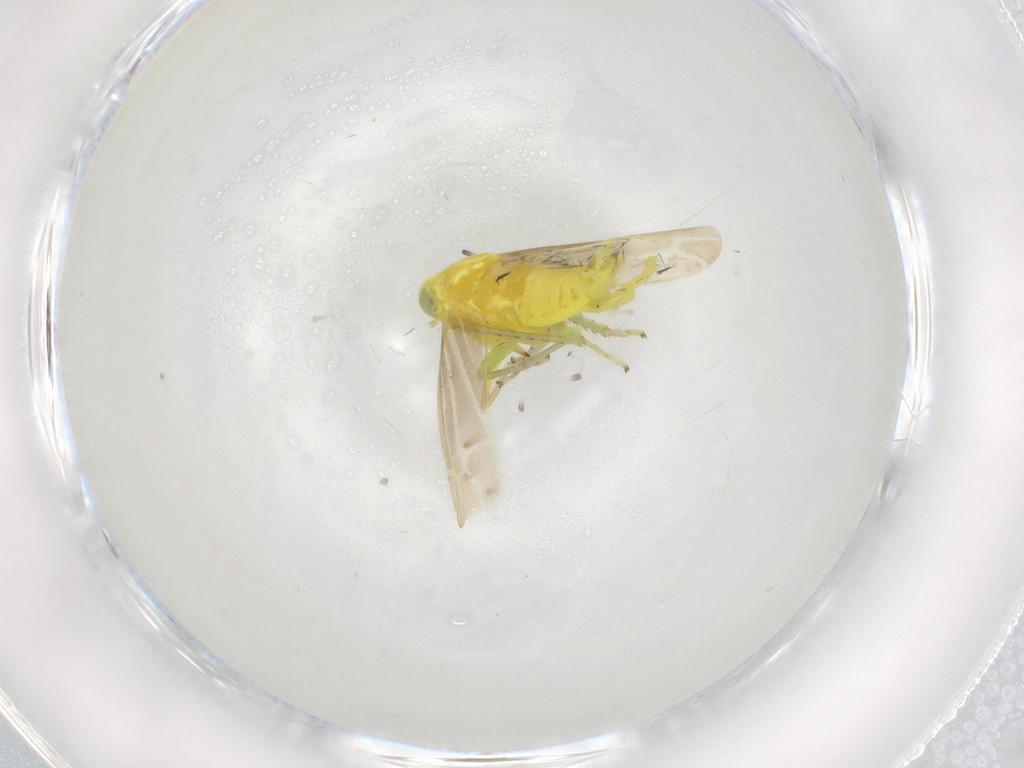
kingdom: Animalia
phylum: Arthropoda
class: Insecta
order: Hemiptera
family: Cicadellidae
